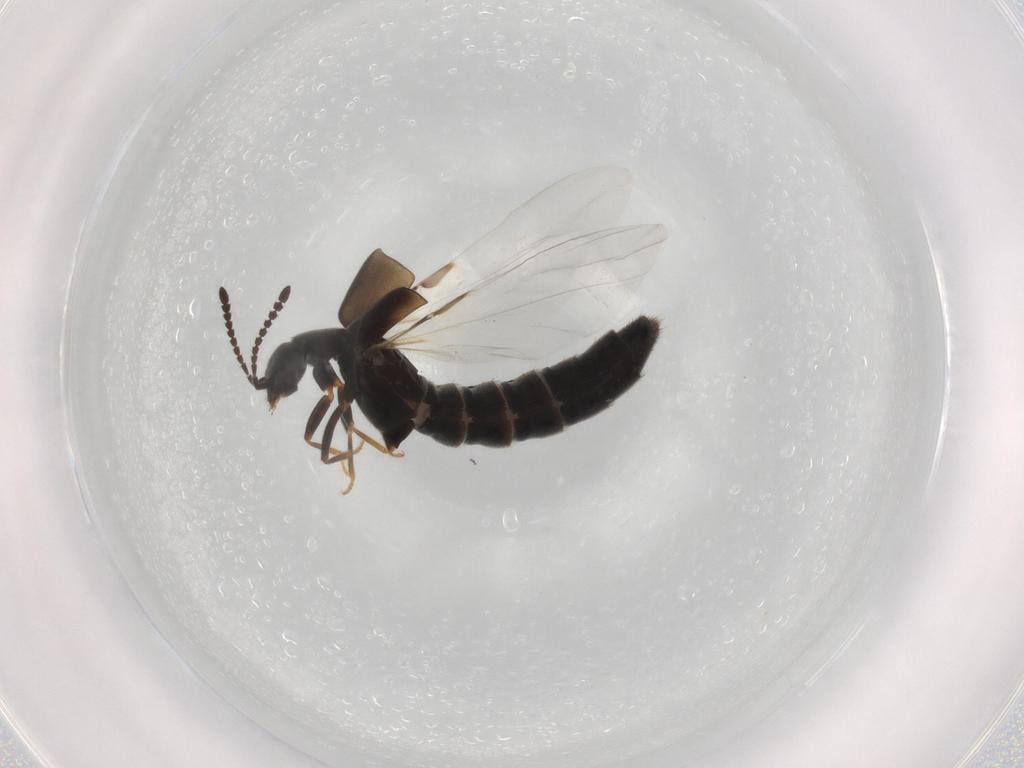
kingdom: Animalia
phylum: Arthropoda
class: Insecta
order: Coleoptera
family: Staphylinidae
